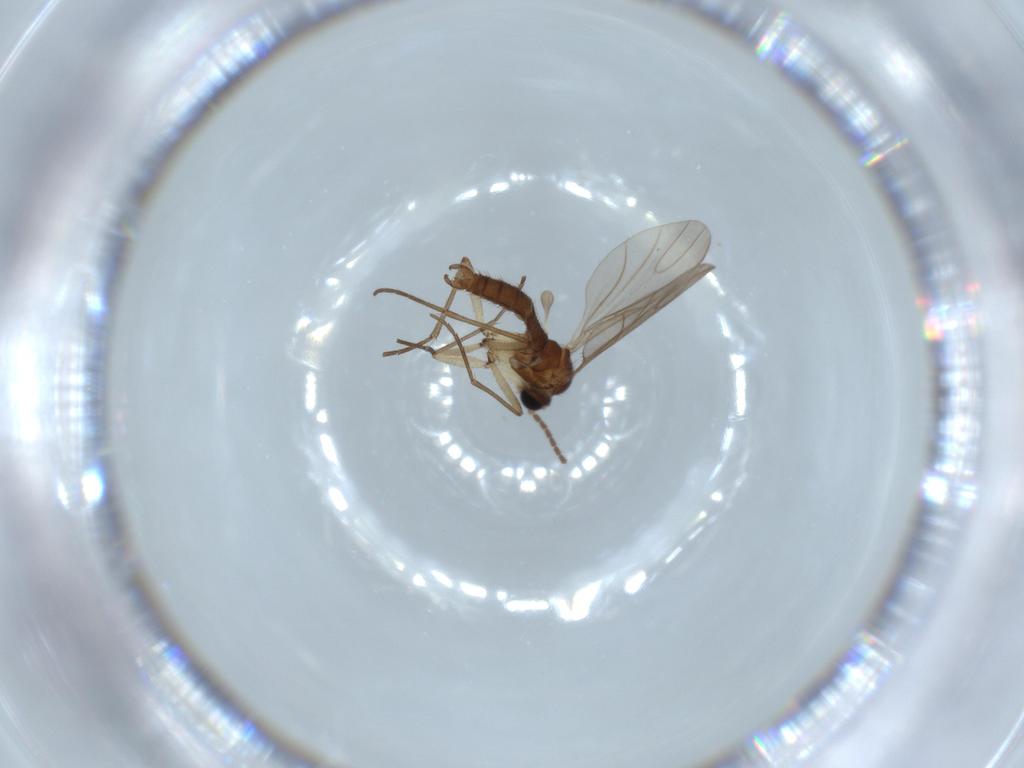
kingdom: Animalia
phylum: Arthropoda
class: Insecta
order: Diptera
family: Sciaridae
